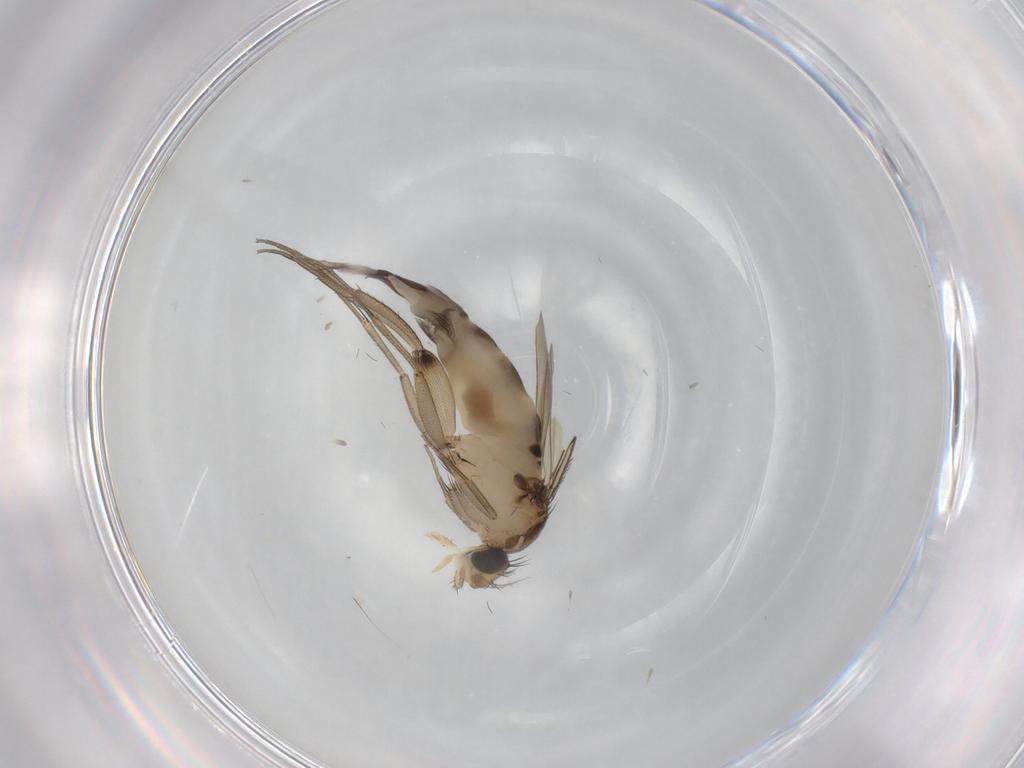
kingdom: Animalia
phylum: Arthropoda
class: Insecta
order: Diptera
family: Phoridae
